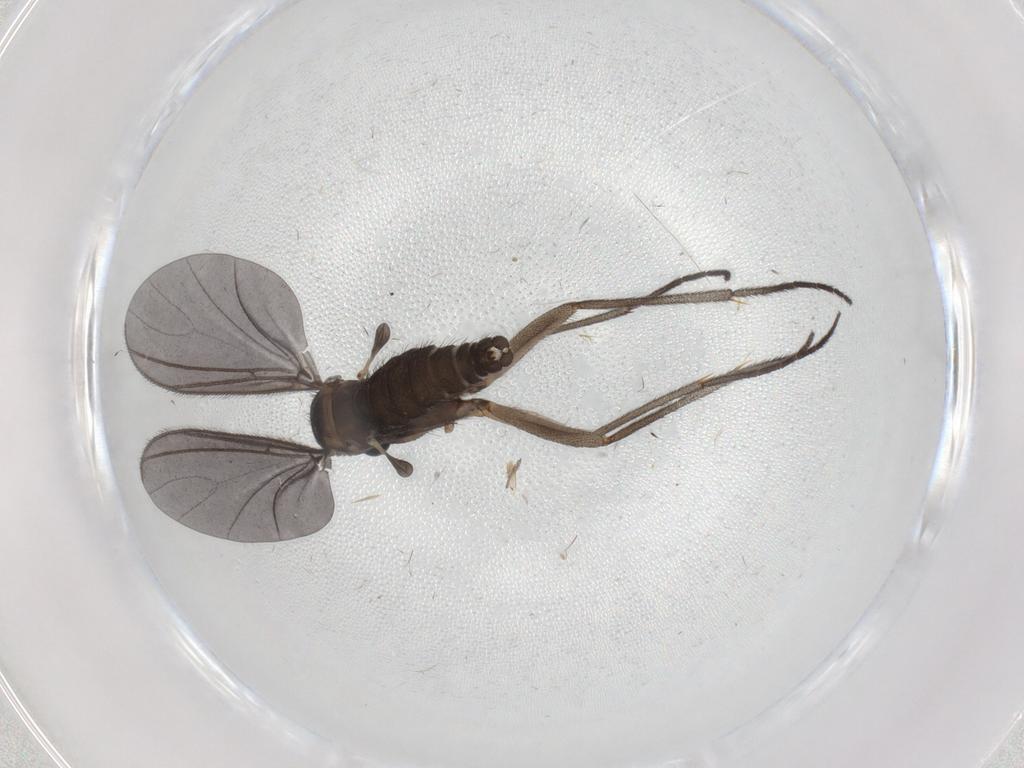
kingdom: Animalia
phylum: Arthropoda
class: Insecta
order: Diptera
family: Sciaridae
